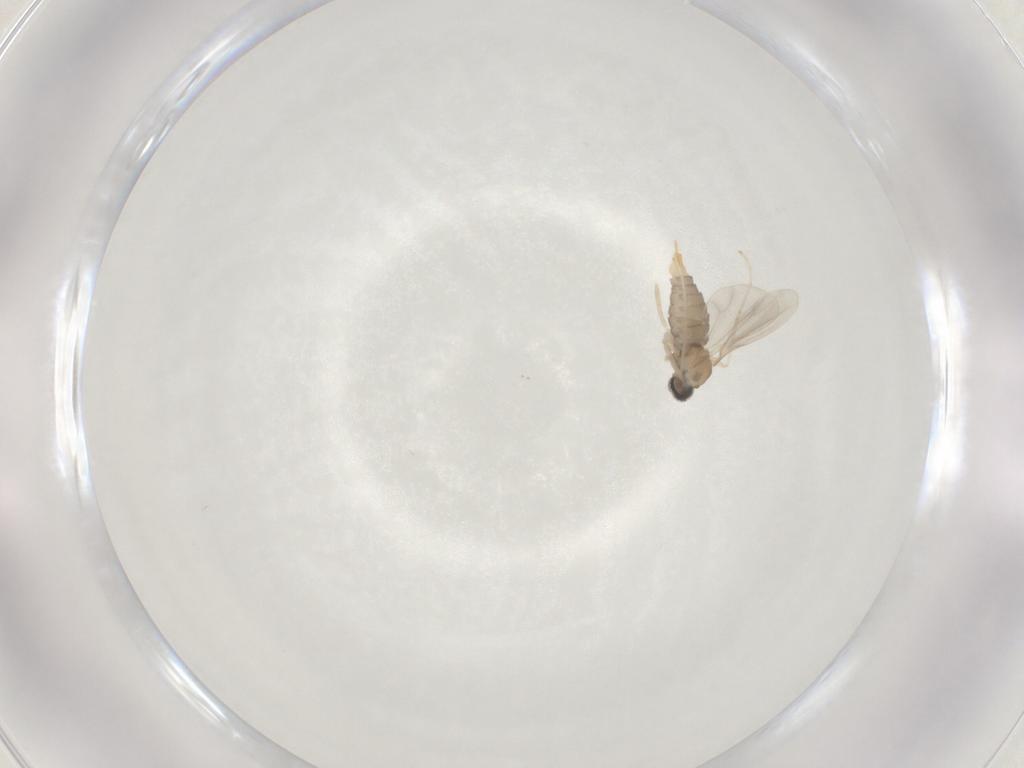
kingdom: Animalia
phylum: Arthropoda
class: Insecta
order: Diptera
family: Cecidomyiidae
